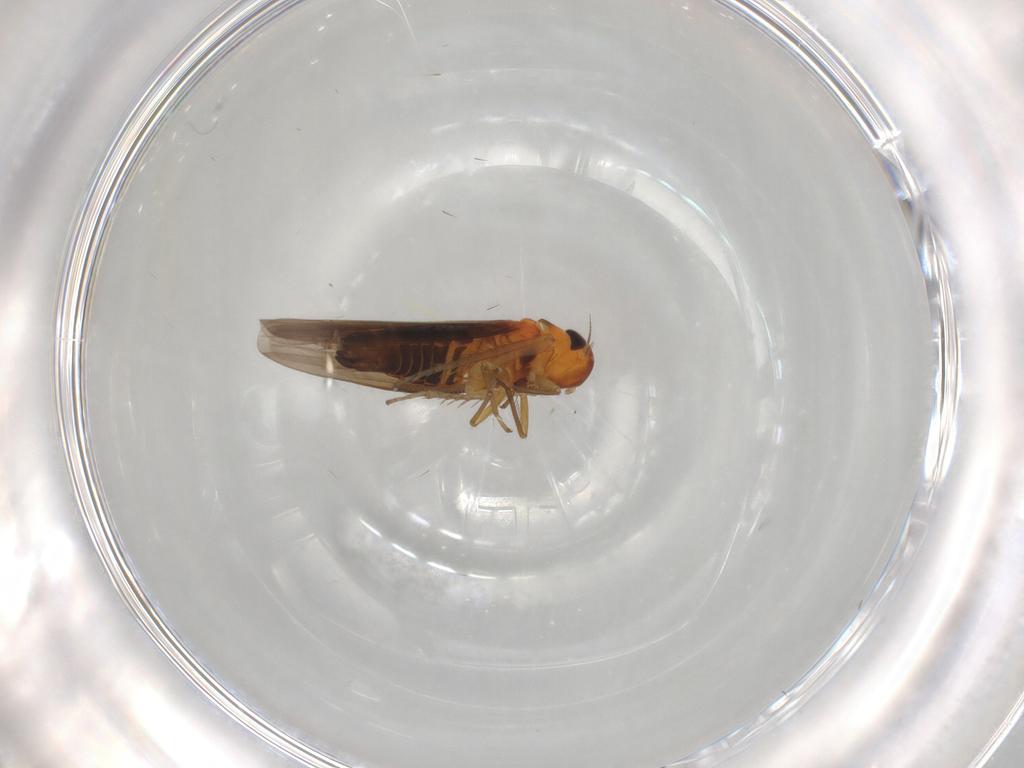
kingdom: Animalia
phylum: Arthropoda
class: Insecta
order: Hemiptera
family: Cicadellidae
